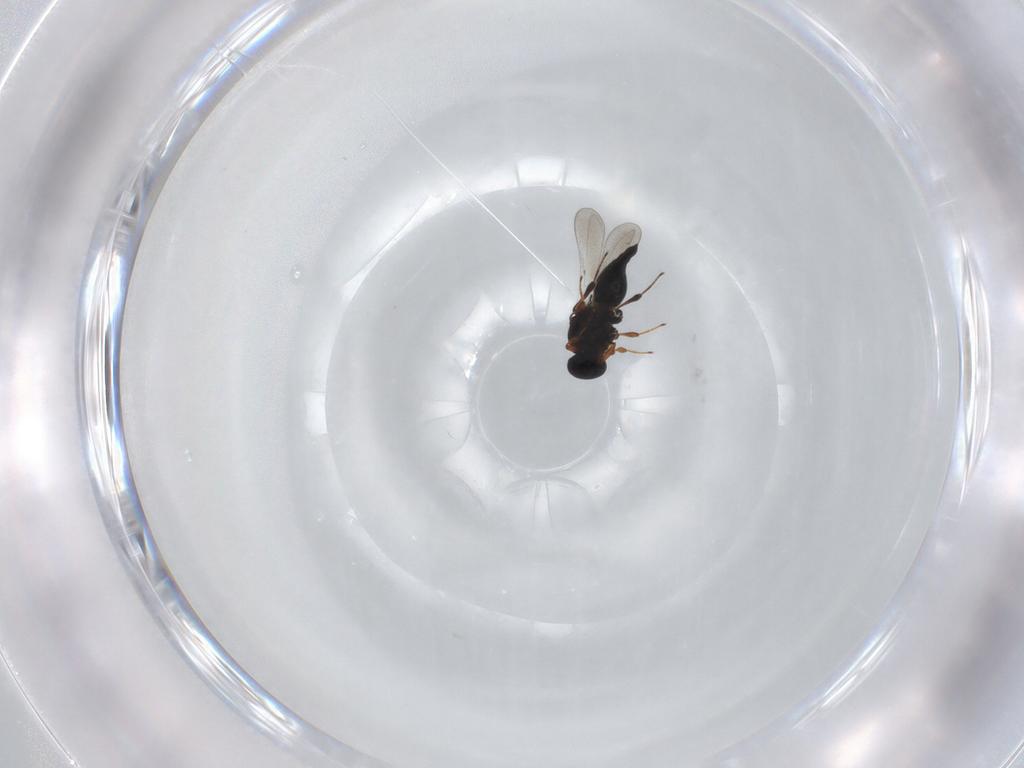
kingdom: Animalia
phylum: Arthropoda
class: Insecta
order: Hymenoptera
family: Platygastridae
